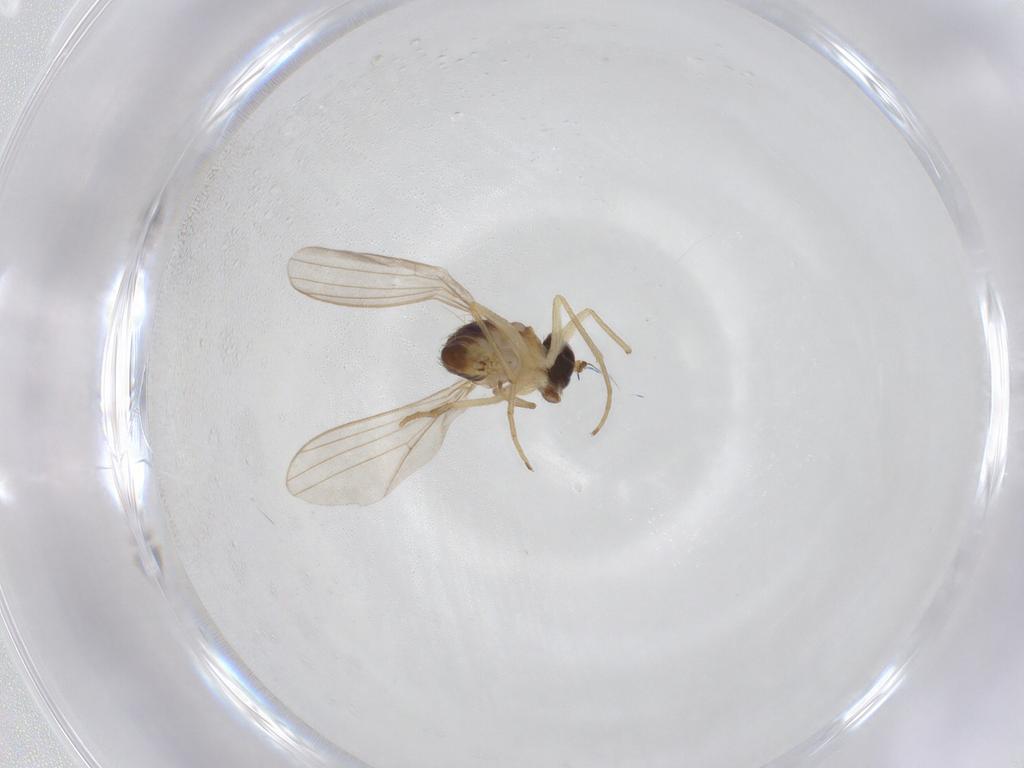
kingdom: Animalia
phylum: Arthropoda
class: Insecta
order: Diptera
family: Dolichopodidae
